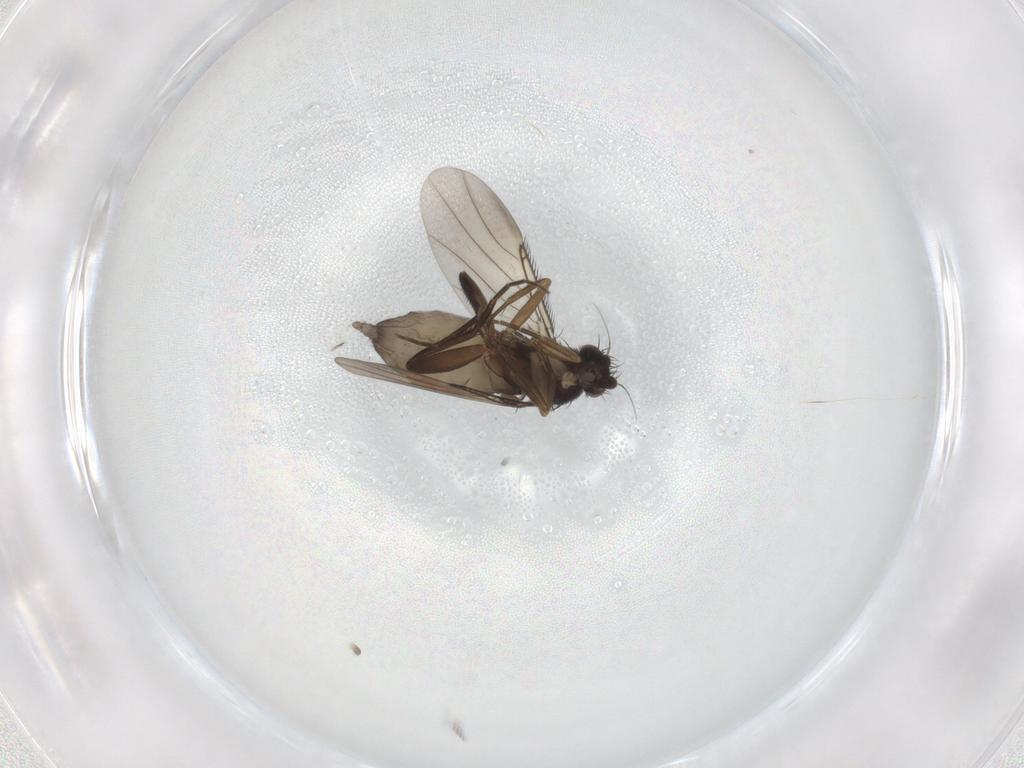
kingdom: Animalia
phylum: Arthropoda
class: Insecta
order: Diptera
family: Phoridae
